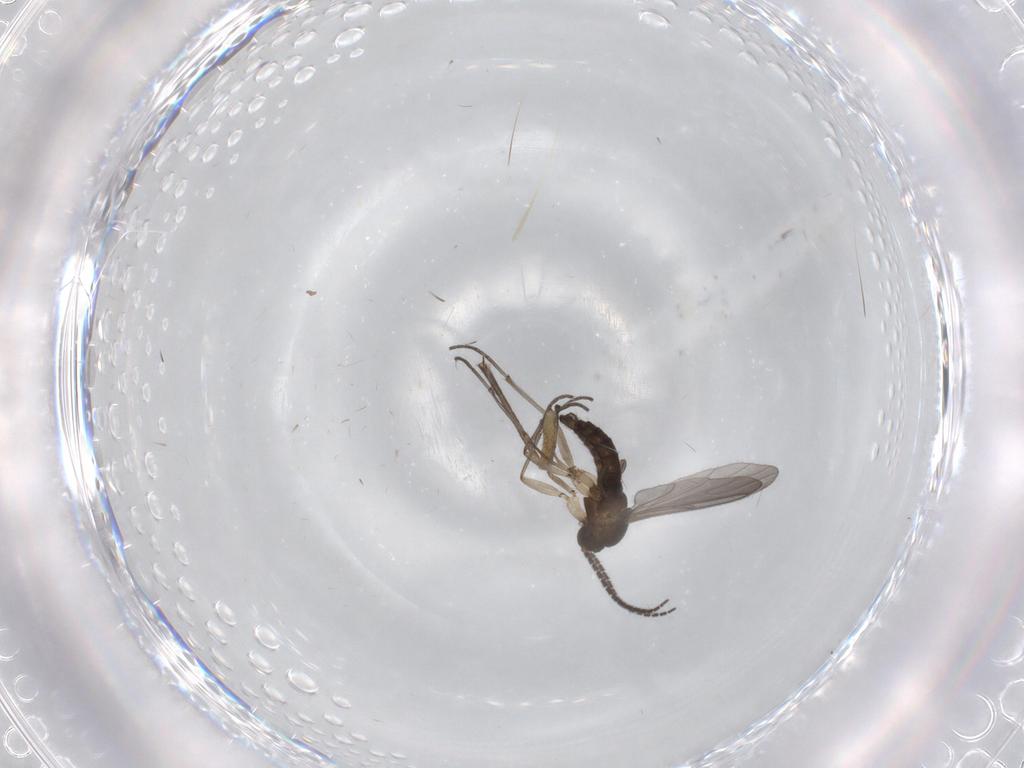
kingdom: Animalia
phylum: Arthropoda
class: Insecta
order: Diptera
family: Sciaridae
